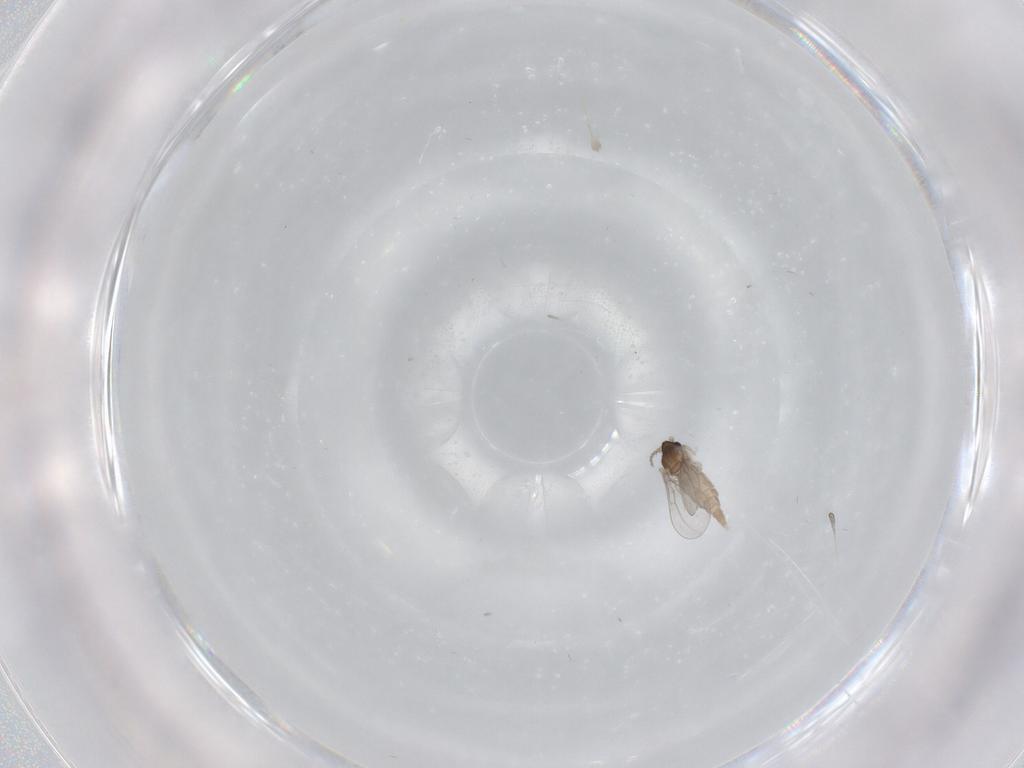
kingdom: Animalia
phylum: Arthropoda
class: Insecta
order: Diptera
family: Cecidomyiidae
